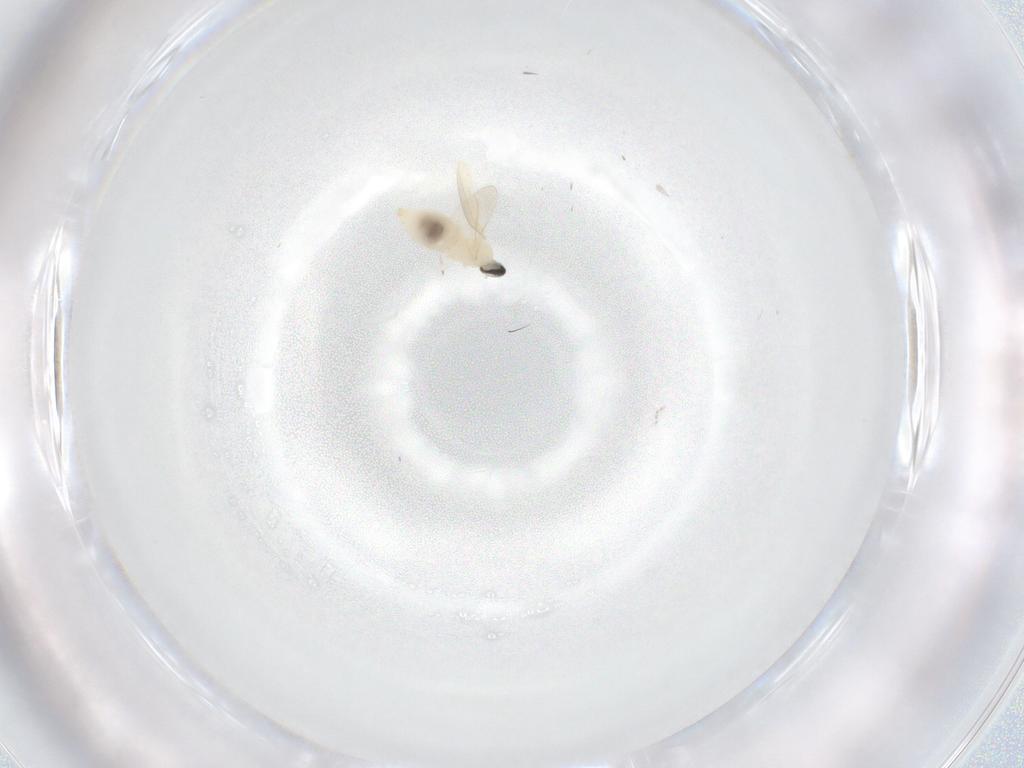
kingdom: Animalia
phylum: Arthropoda
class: Insecta
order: Diptera
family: Cecidomyiidae
